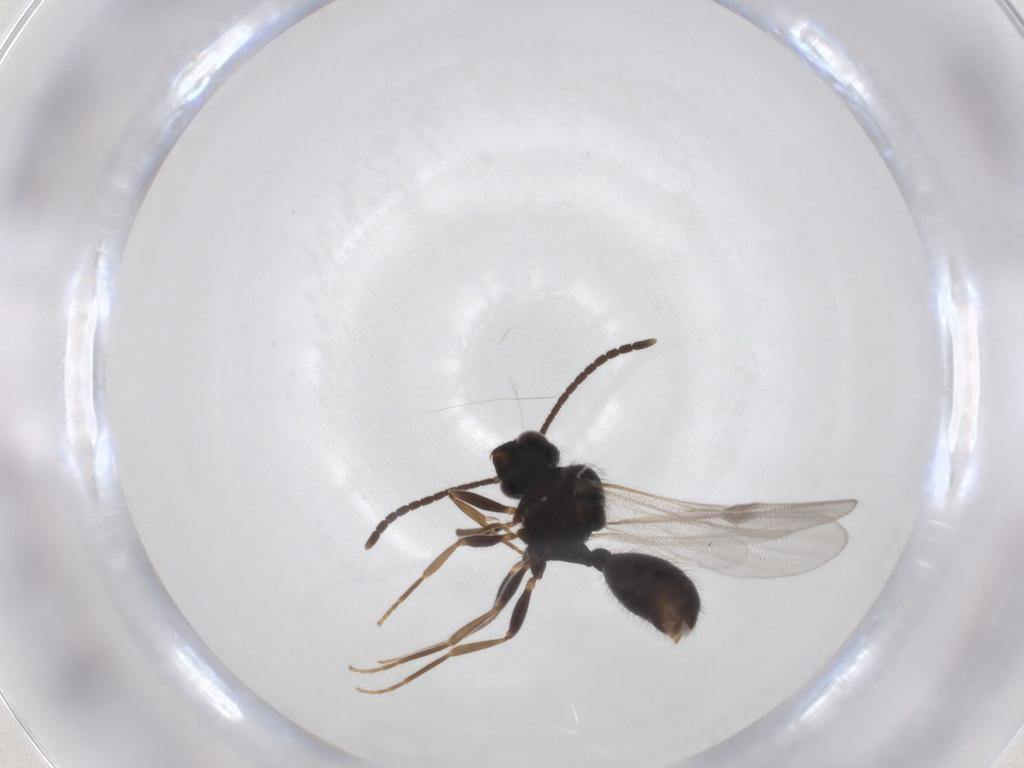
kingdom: Animalia
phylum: Arthropoda
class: Insecta
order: Hymenoptera
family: Formicidae
